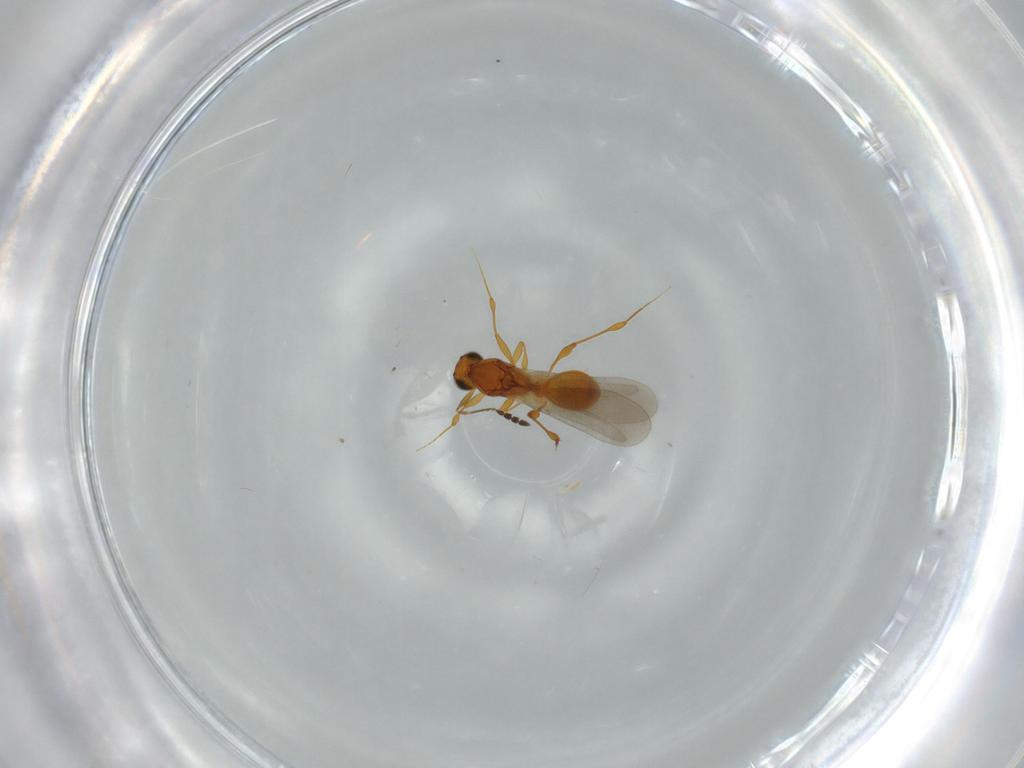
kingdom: Animalia
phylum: Arthropoda
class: Insecta
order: Hymenoptera
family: Platygastridae
